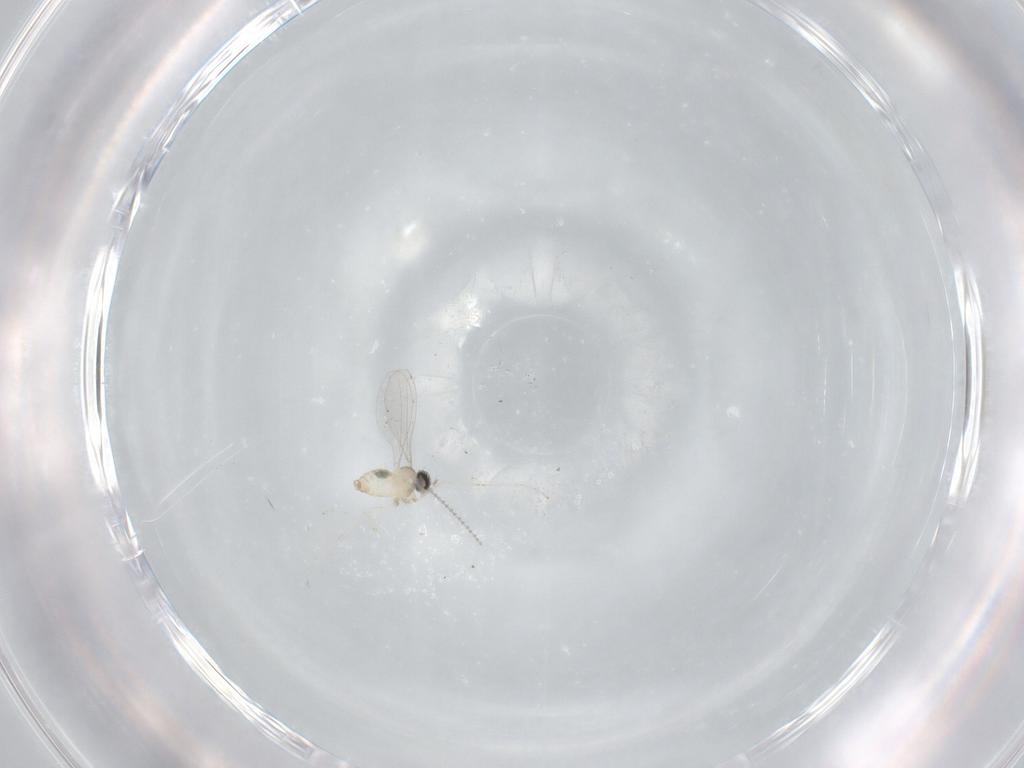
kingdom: Animalia
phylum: Arthropoda
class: Insecta
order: Diptera
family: Cecidomyiidae
